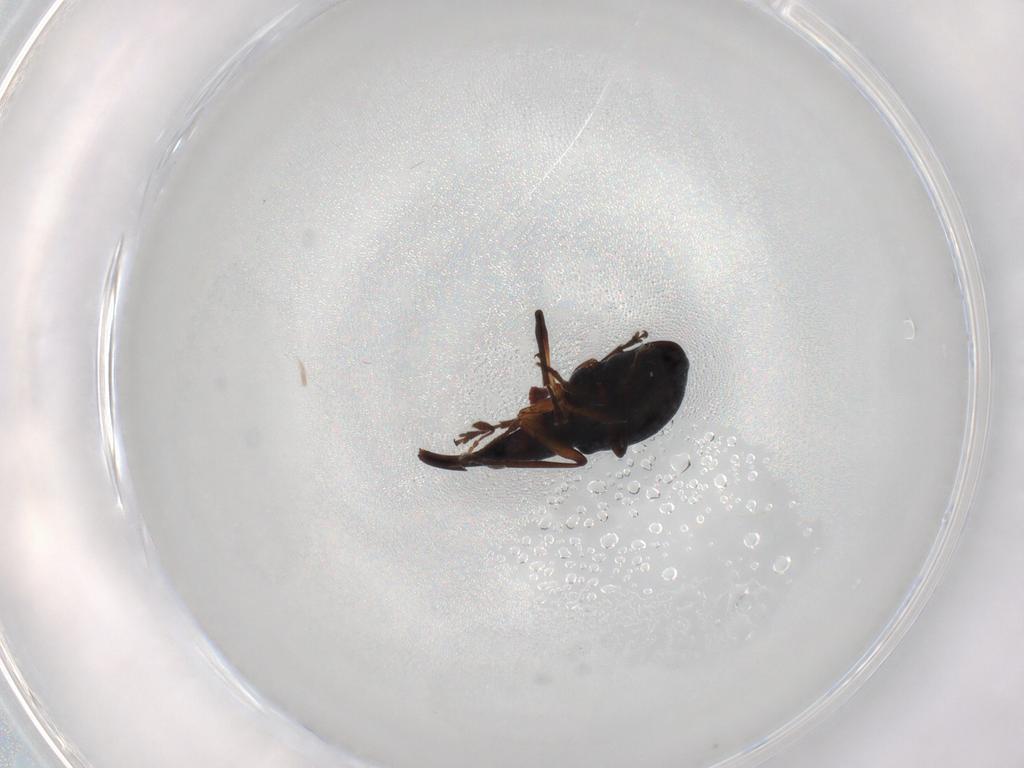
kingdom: Animalia
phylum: Arthropoda
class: Insecta
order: Coleoptera
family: Brentidae
